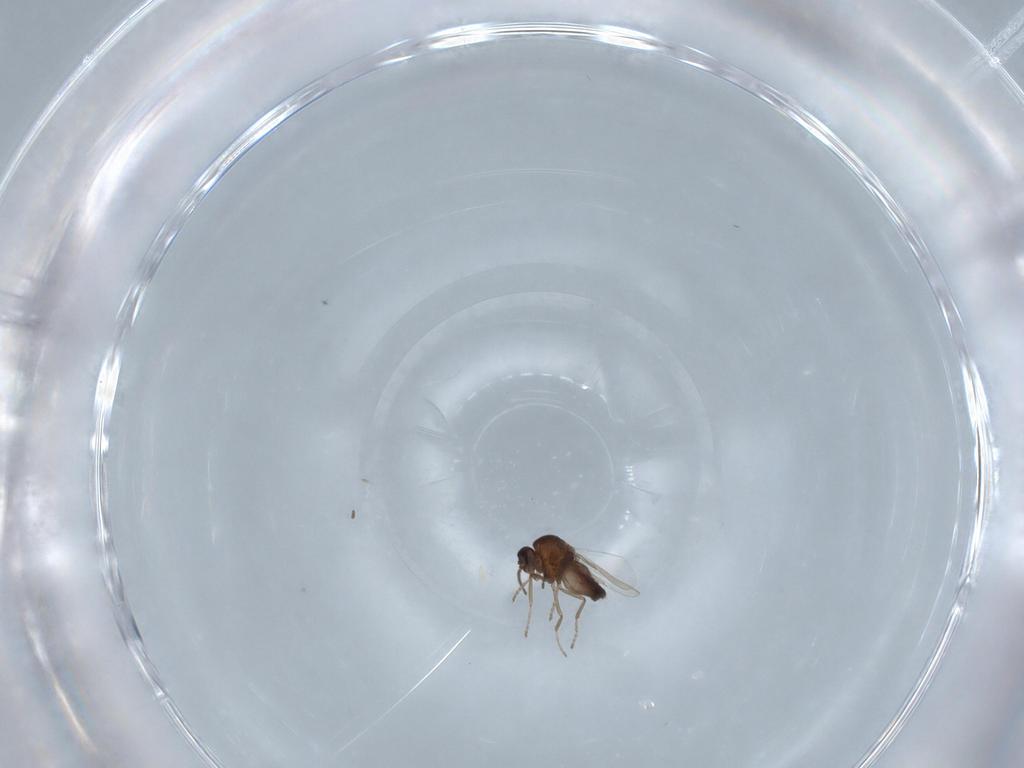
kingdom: Animalia
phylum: Arthropoda
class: Insecta
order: Diptera
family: Ceratopogonidae
